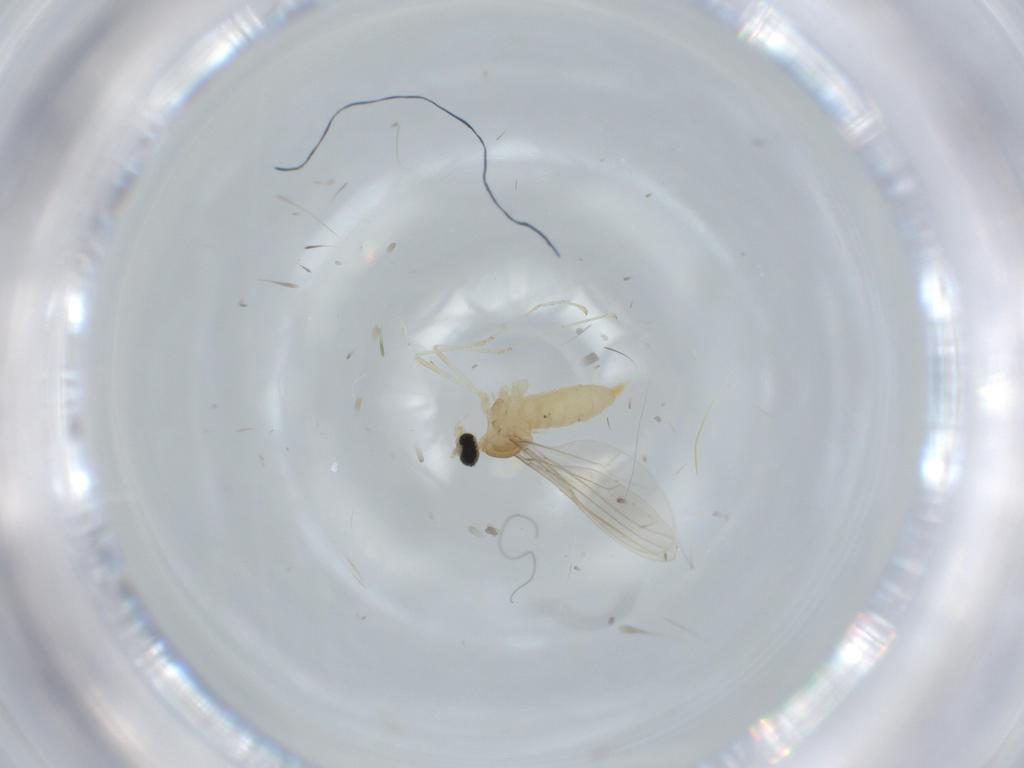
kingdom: Animalia
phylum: Arthropoda
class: Insecta
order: Diptera
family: Cecidomyiidae
